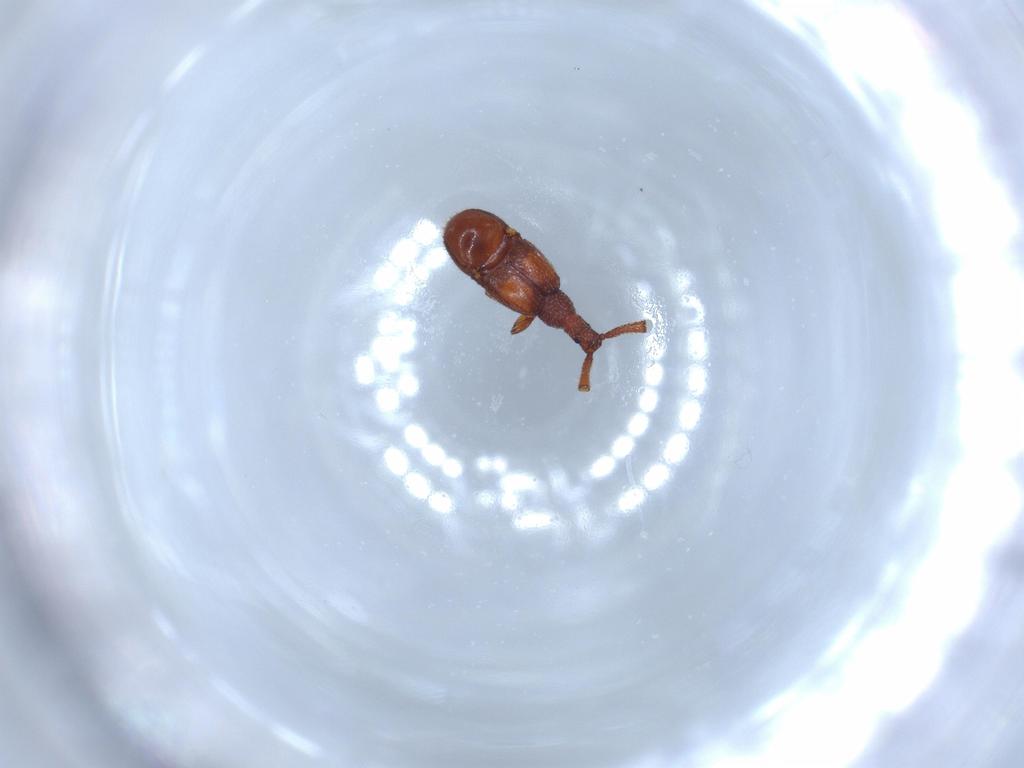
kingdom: Animalia
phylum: Arthropoda
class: Insecta
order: Coleoptera
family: Staphylinidae
